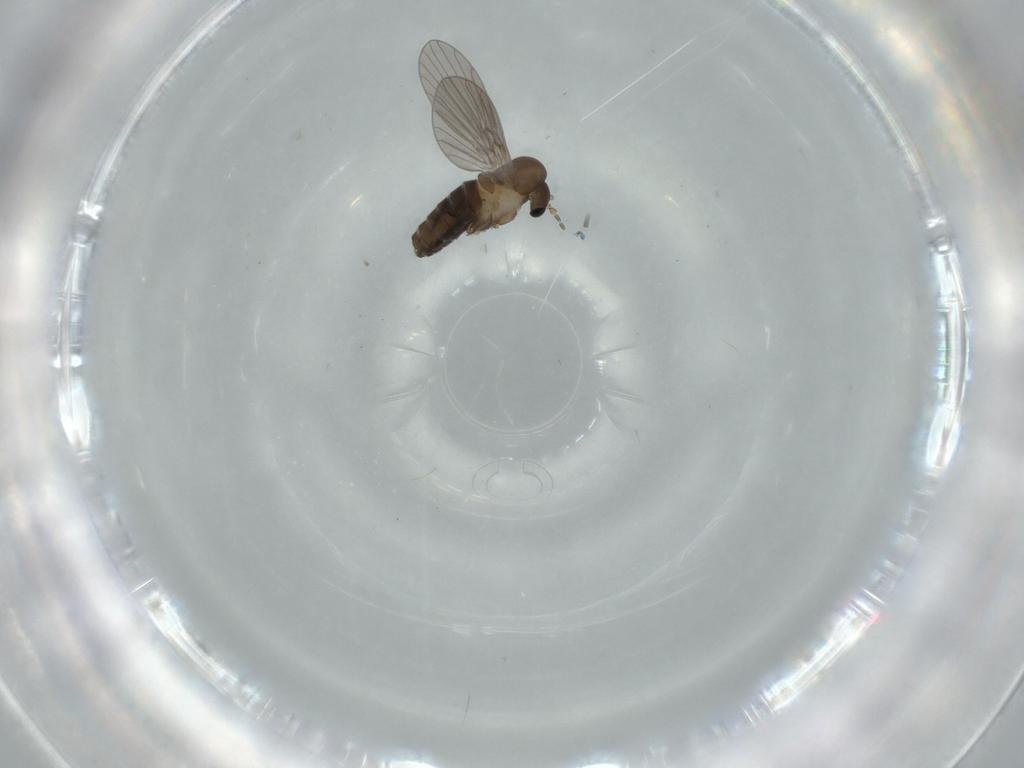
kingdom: Animalia
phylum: Arthropoda
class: Insecta
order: Diptera
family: Psychodidae
